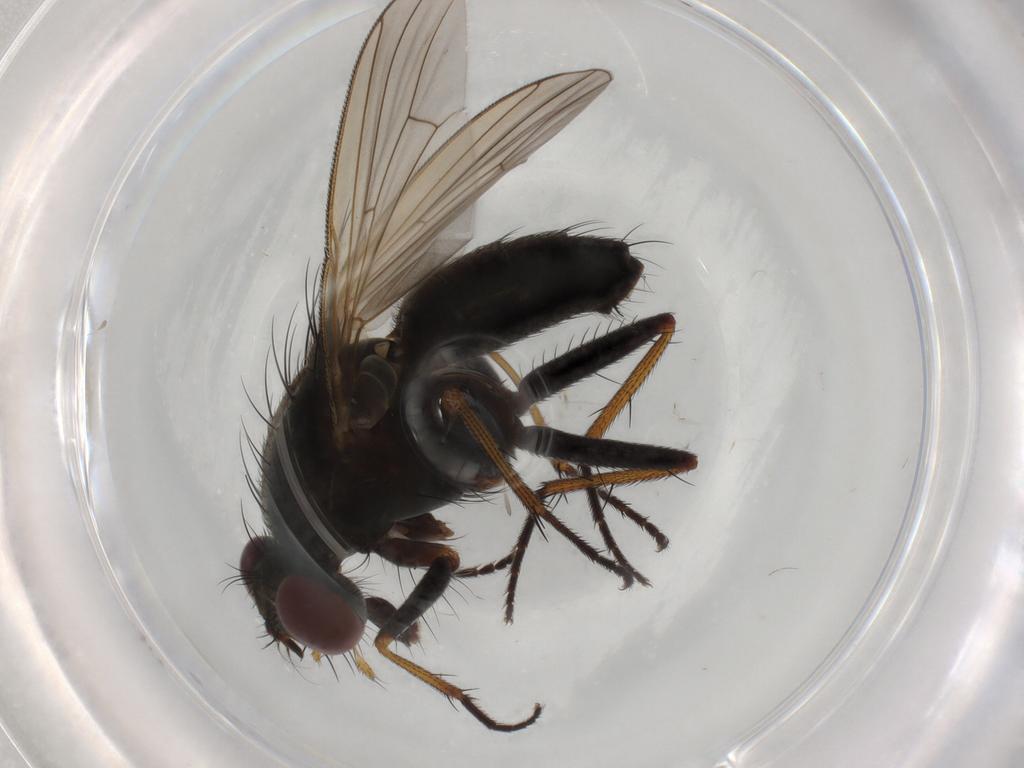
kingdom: Animalia
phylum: Arthropoda
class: Insecta
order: Diptera
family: Muscidae
